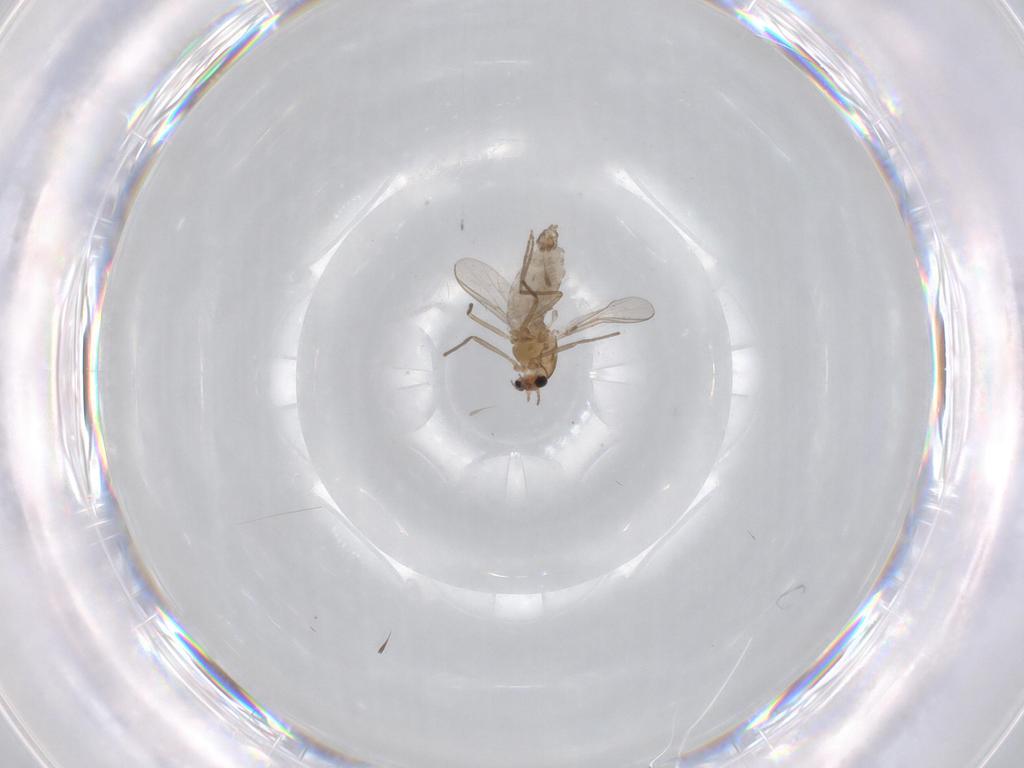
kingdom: Animalia
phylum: Arthropoda
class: Insecta
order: Diptera
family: Chironomidae
